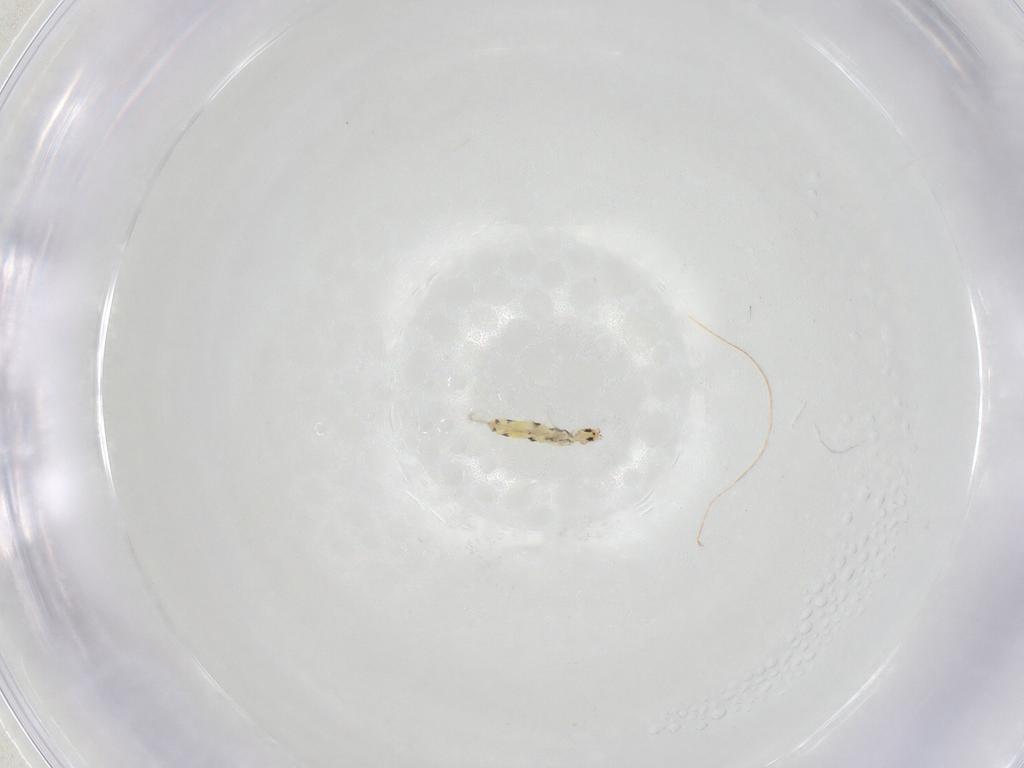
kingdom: Animalia
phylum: Arthropoda
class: Collembola
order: Entomobryomorpha
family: Entomobryidae
